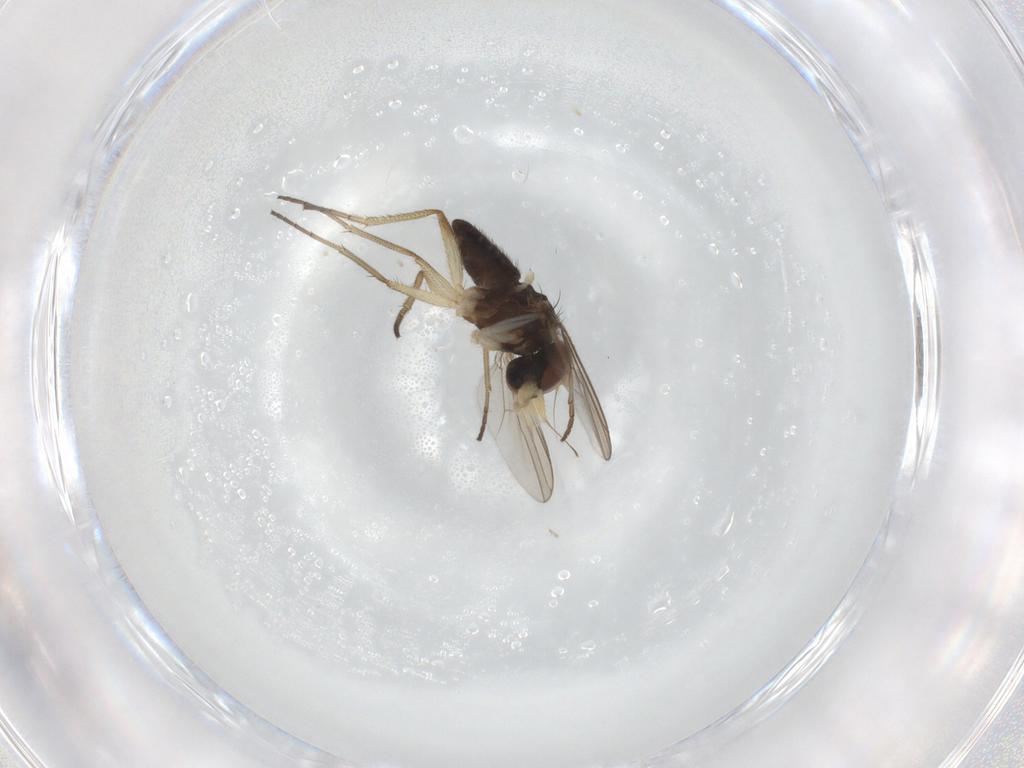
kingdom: Animalia
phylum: Arthropoda
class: Insecta
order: Diptera
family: Dolichopodidae
